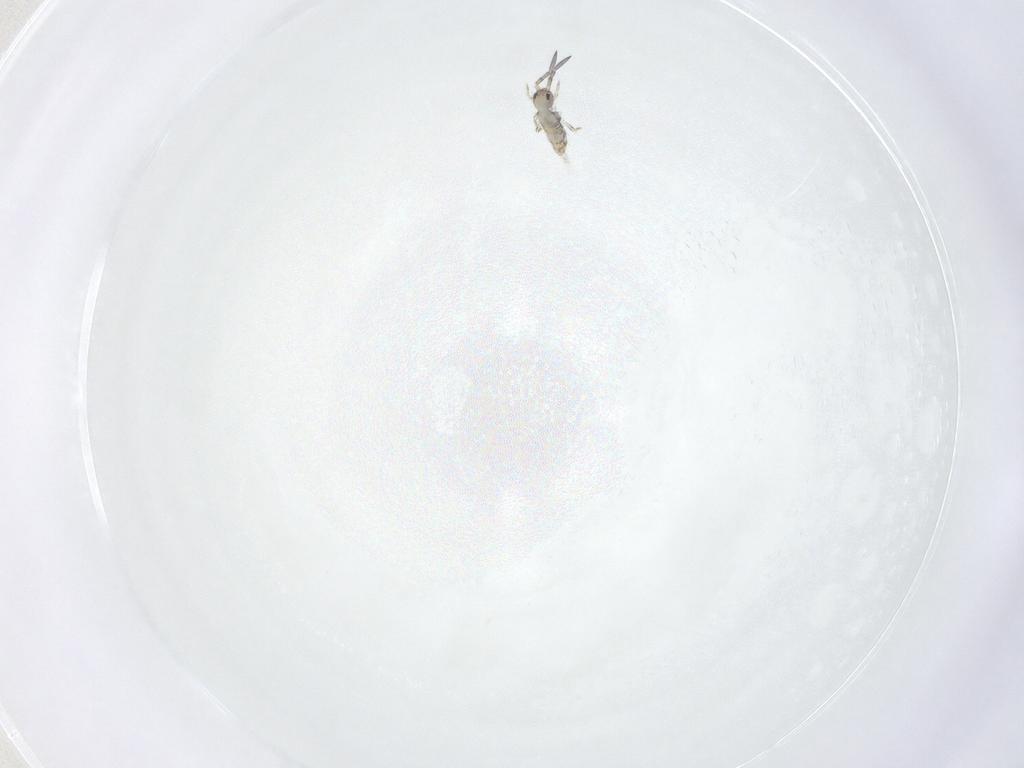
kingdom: Animalia
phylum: Arthropoda
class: Collembola
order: Entomobryomorpha
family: Entomobryidae
